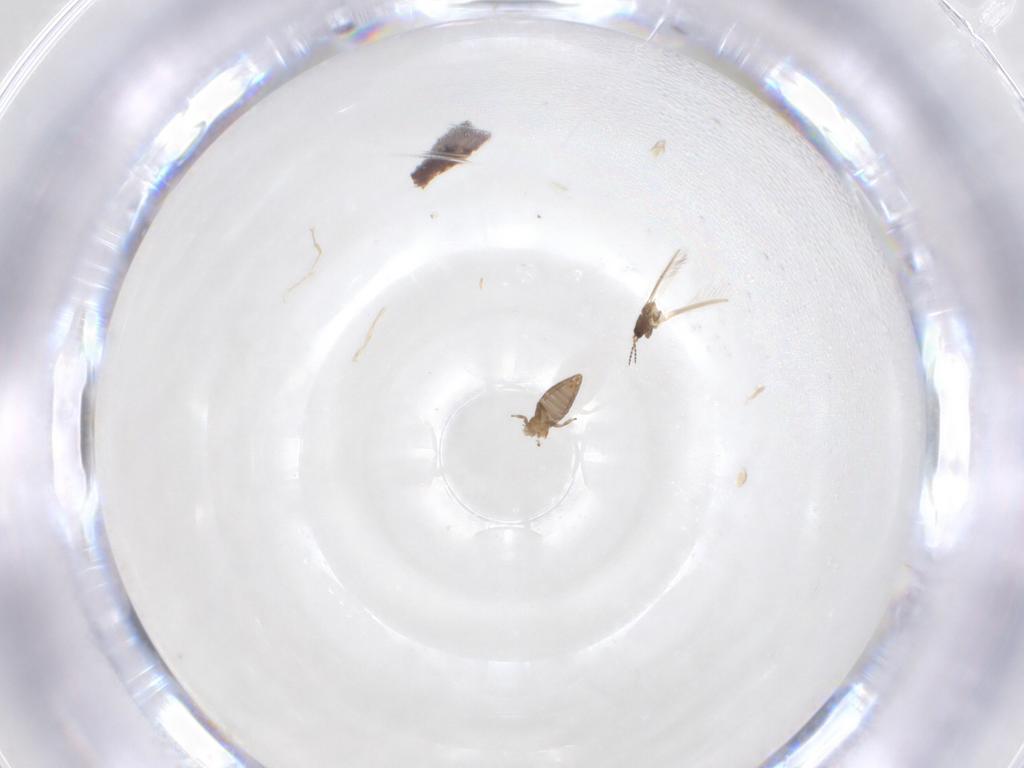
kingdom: Animalia
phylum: Arthropoda
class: Insecta
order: Thysanoptera
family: Heterothripidae
